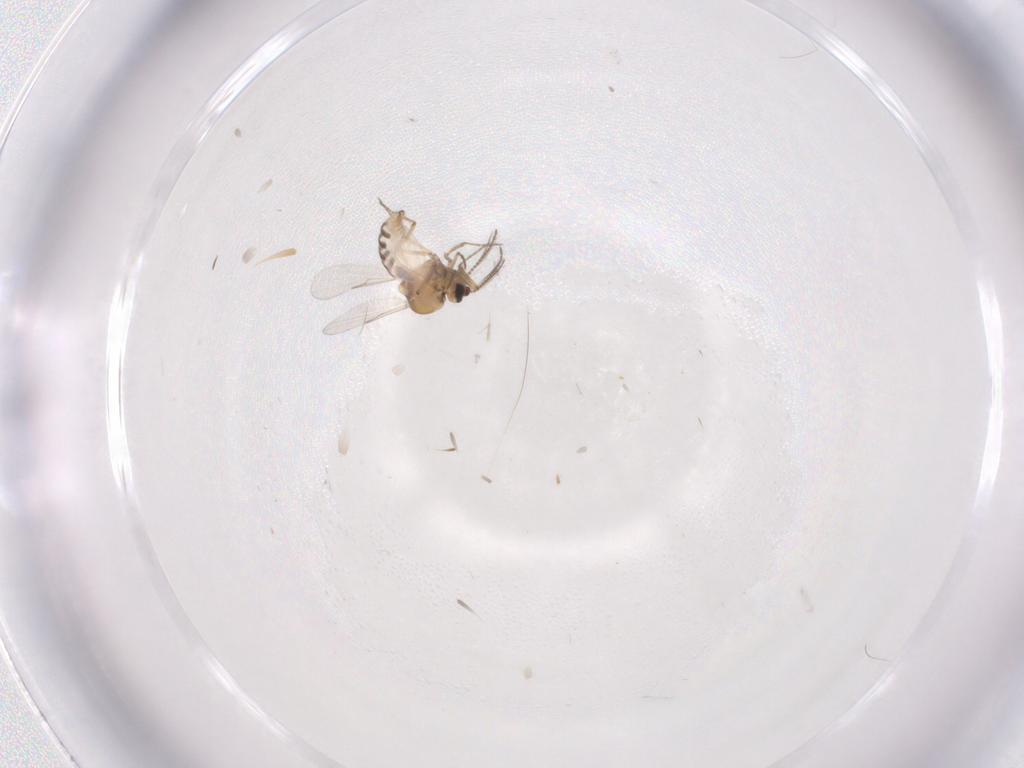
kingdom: Animalia
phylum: Arthropoda
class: Insecta
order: Diptera
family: Ceratopogonidae
